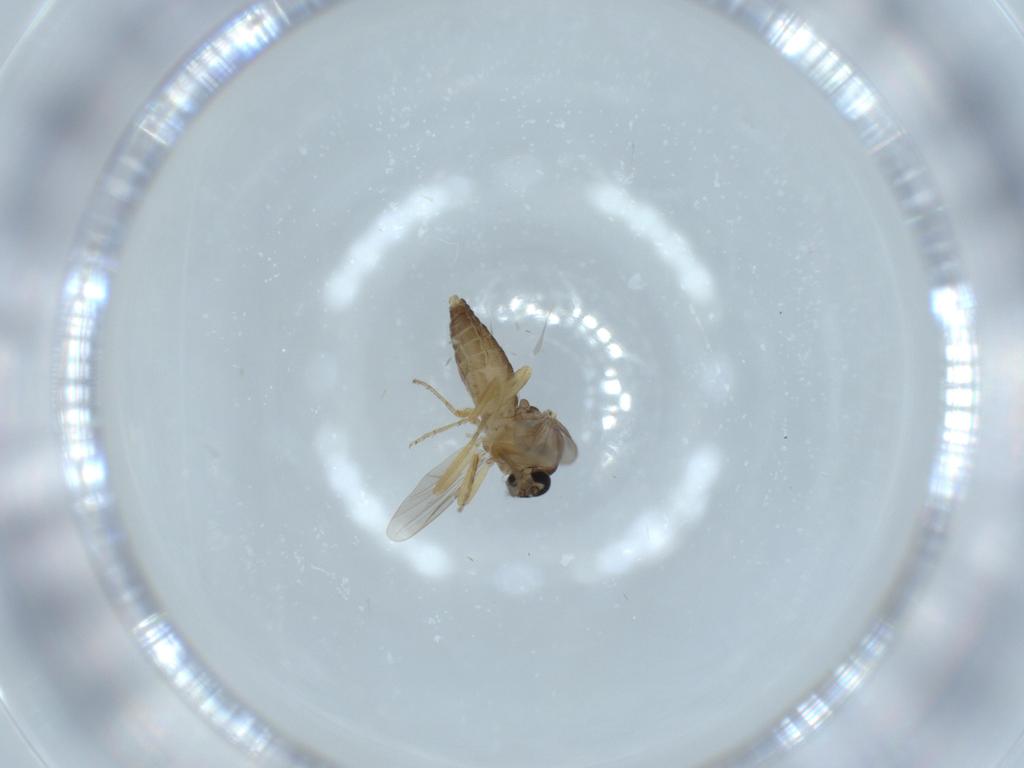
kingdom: Animalia
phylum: Arthropoda
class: Insecta
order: Diptera
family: Ceratopogonidae
